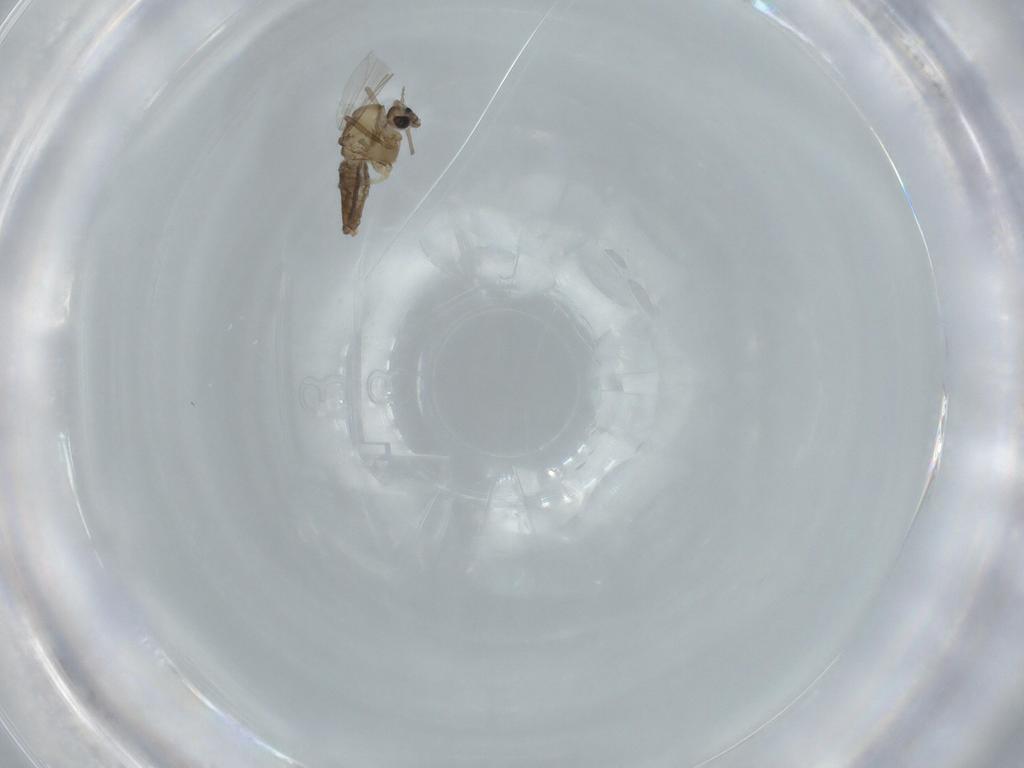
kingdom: Animalia
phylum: Arthropoda
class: Insecta
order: Diptera
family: Chironomidae
